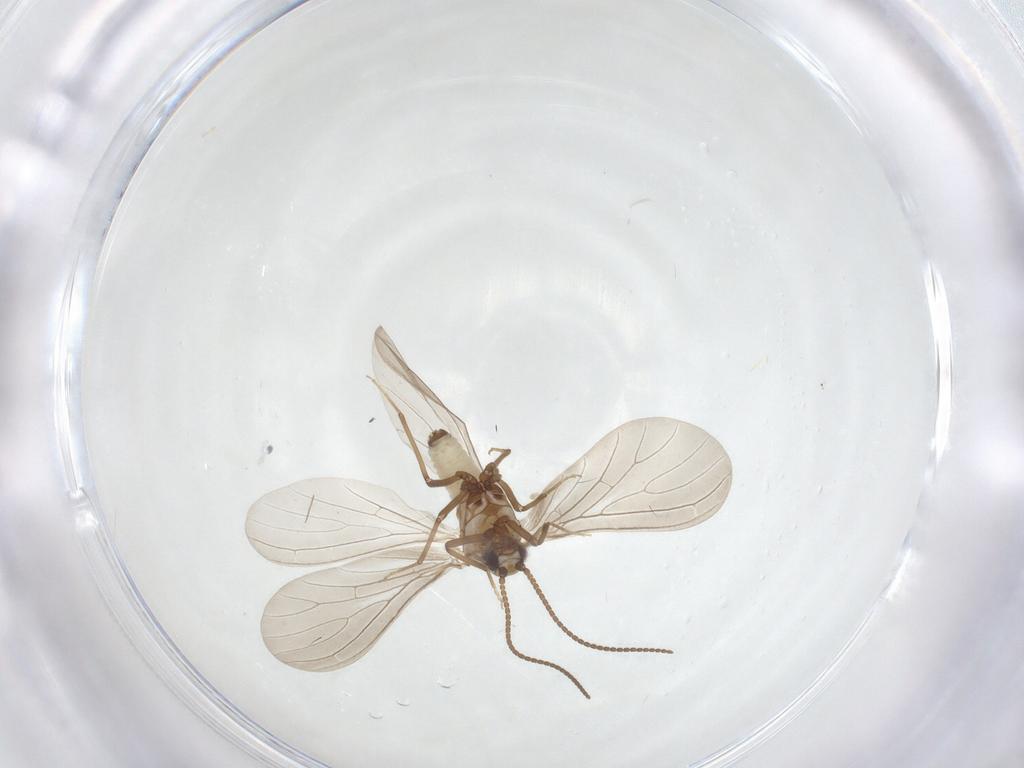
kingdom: Animalia
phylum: Arthropoda
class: Insecta
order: Neuroptera
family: Coniopterygidae
